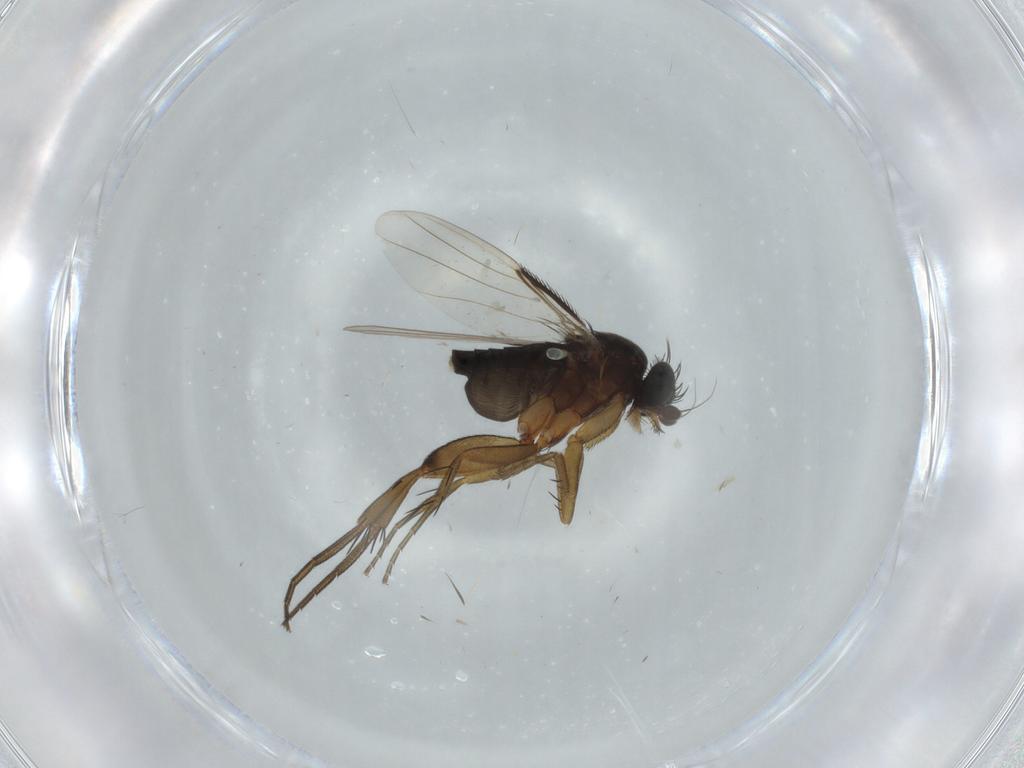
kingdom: Animalia
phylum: Arthropoda
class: Insecta
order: Diptera
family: Phoridae
